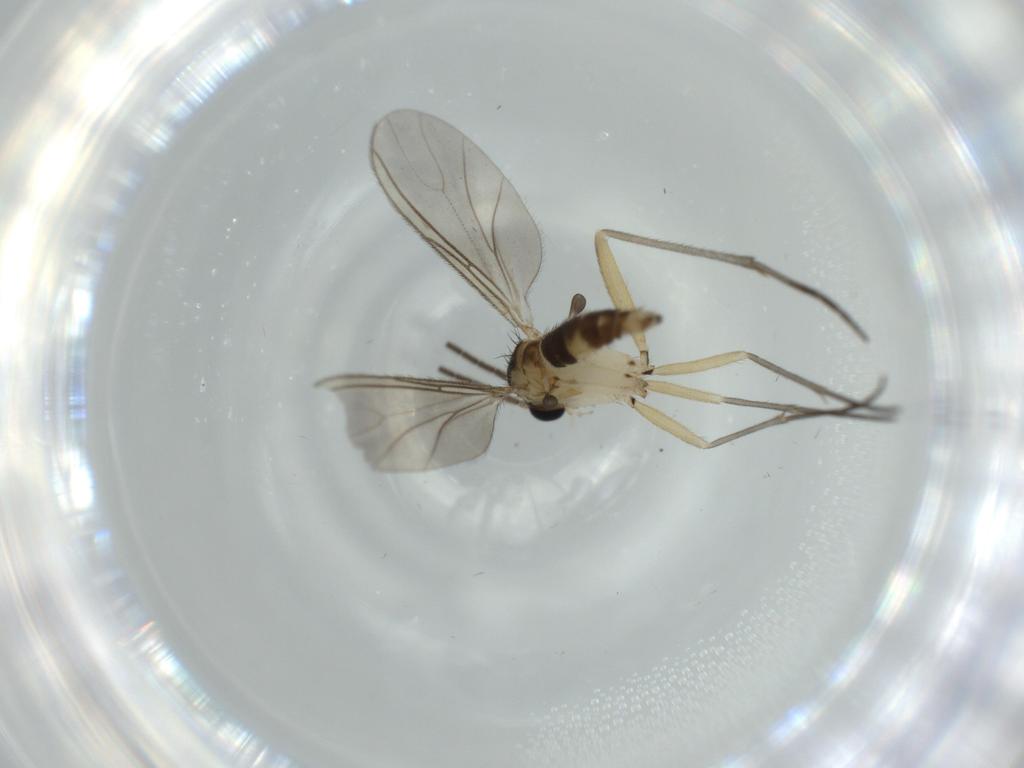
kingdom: Animalia
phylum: Arthropoda
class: Insecta
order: Diptera
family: Sciaridae
